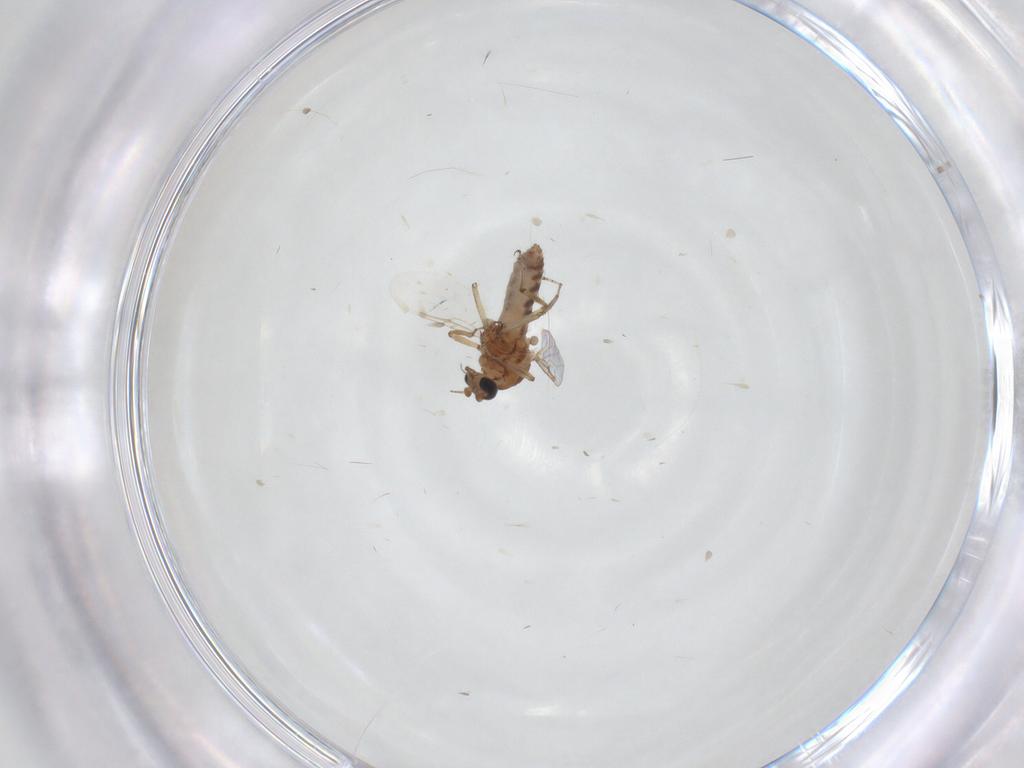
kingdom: Animalia
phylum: Arthropoda
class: Insecta
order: Diptera
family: Ceratopogonidae
